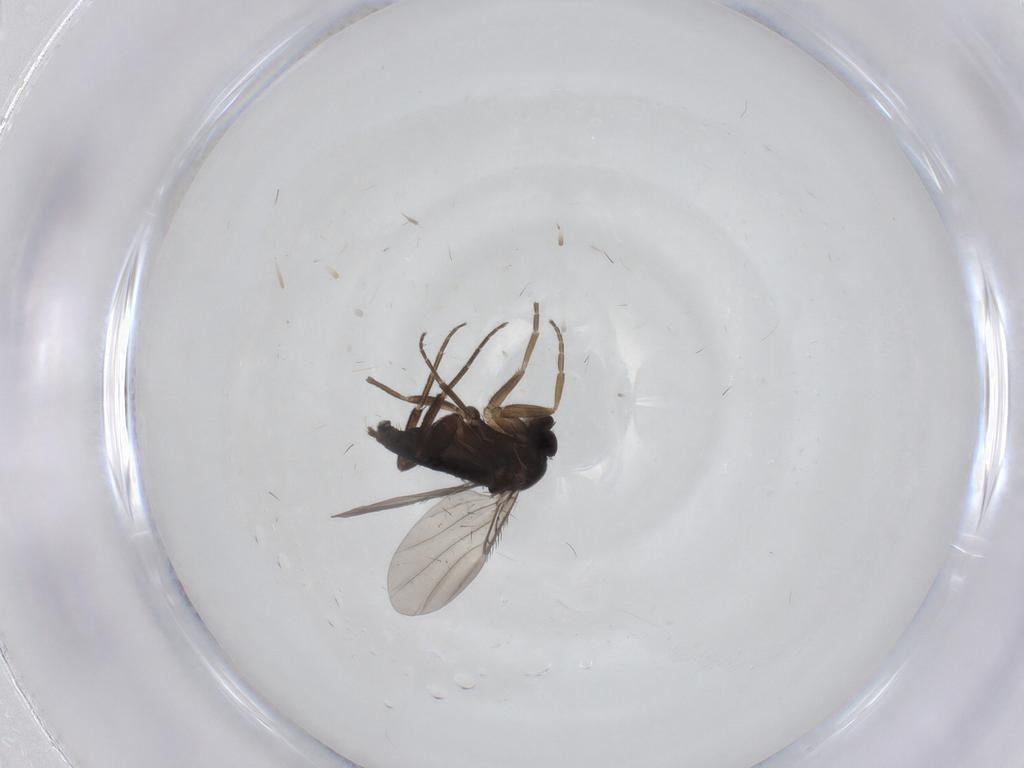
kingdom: Animalia
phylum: Arthropoda
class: Insecta
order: Diptera
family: Phoridae
